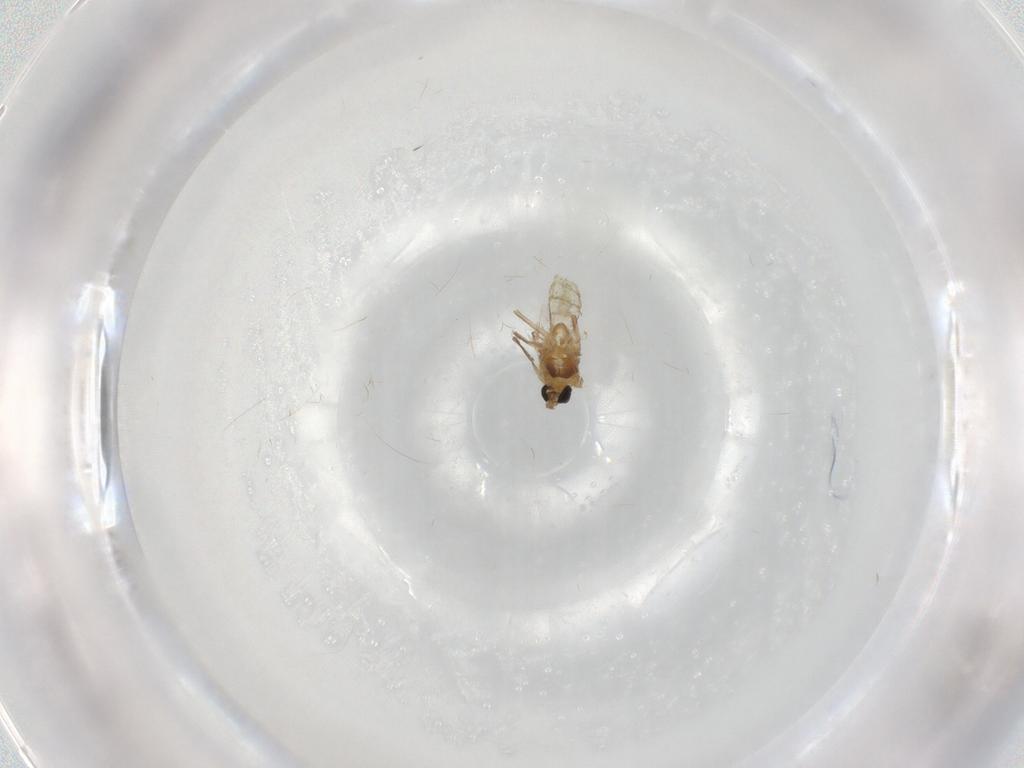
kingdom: Animalia
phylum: Arthropoda
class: Insecta
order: Diptera
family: Chironomidae
